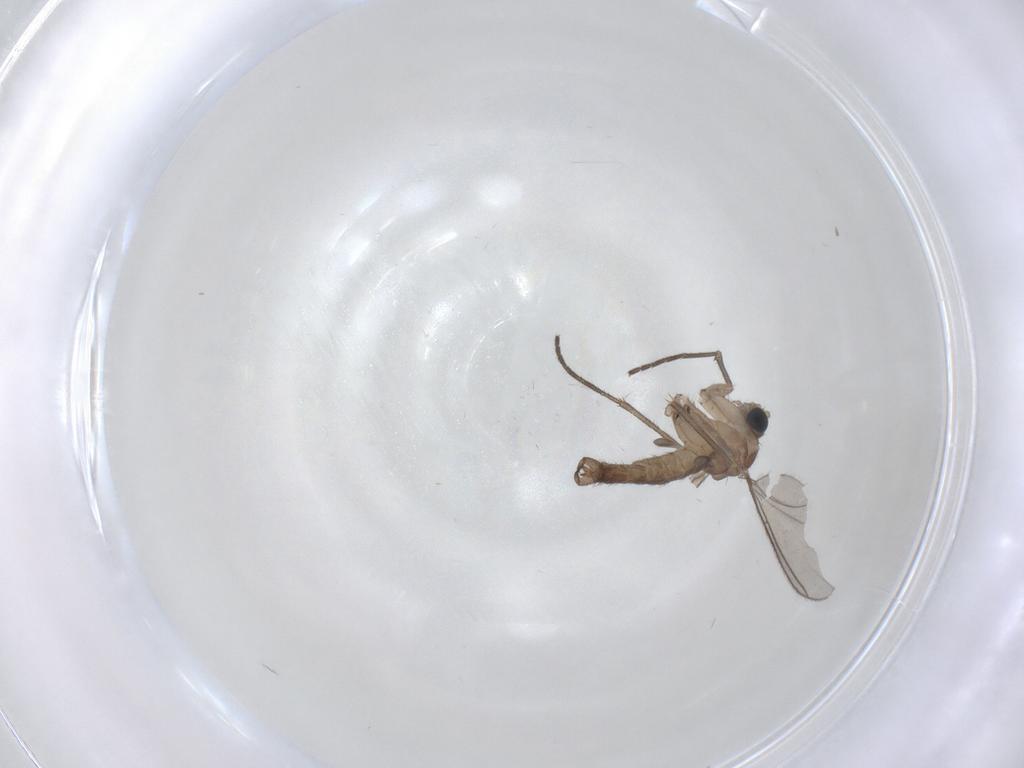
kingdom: Animalia
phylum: Arthropoda
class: Insecta
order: Diptera
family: Sciaridae
